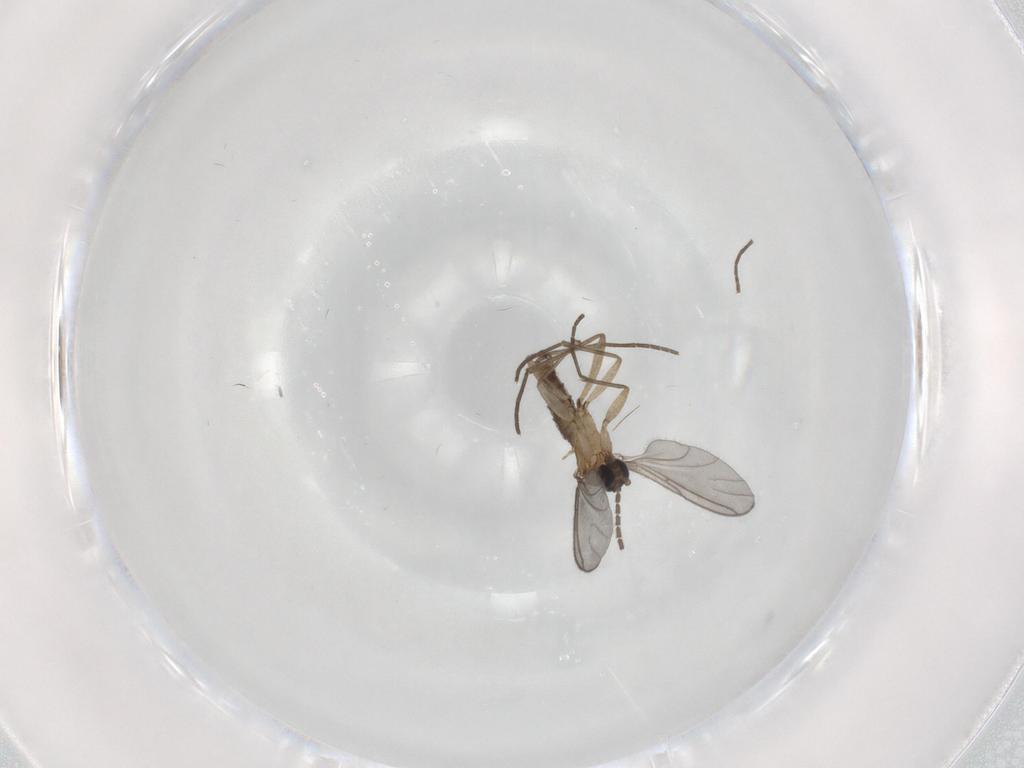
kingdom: Animalia
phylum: Arthropoda
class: Insecta
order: Diptera
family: Sciaridae
